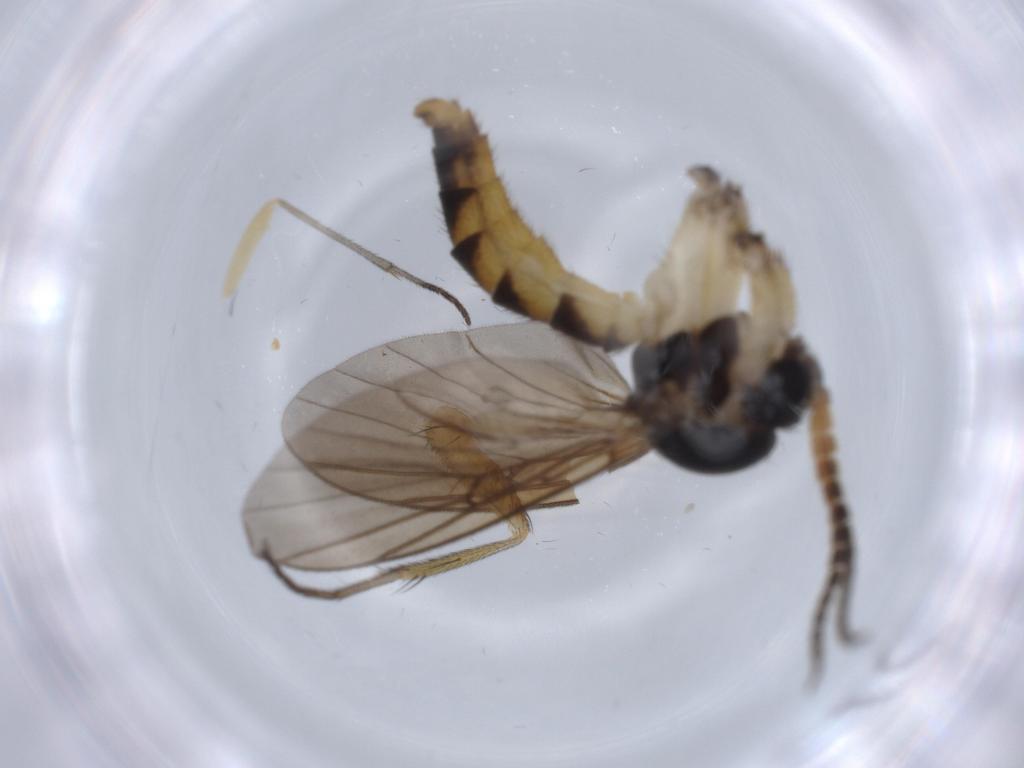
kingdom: Animalia
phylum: Arthropoda
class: Insecta
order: Diptera
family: Sciaridae
